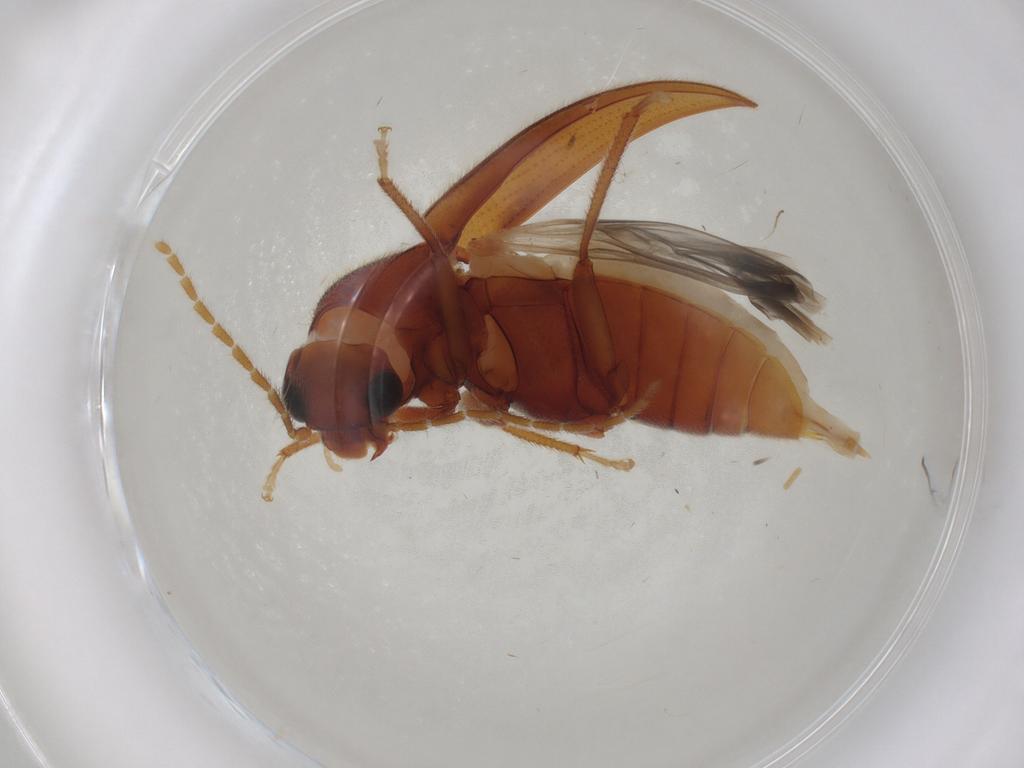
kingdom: Animalia
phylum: Arthropoda
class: Insecta
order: Coleoptera
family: Ptilodactylidae
